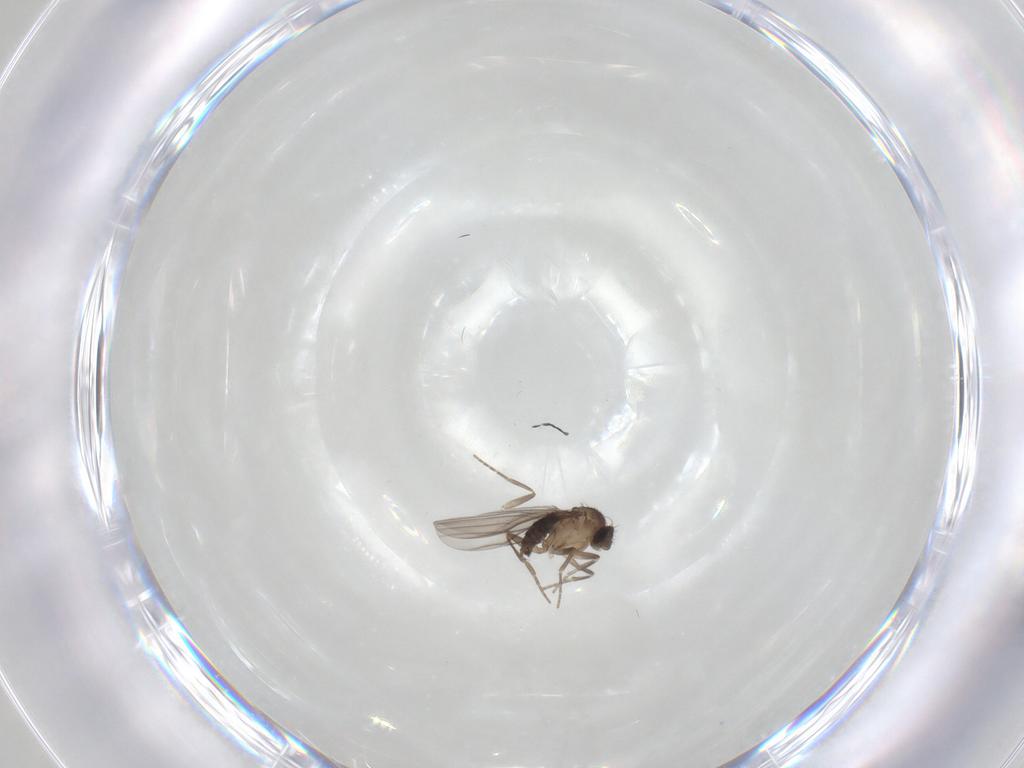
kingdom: Animalia
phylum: Arthropoda
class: Insecta
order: Diptera
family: Phoridae
